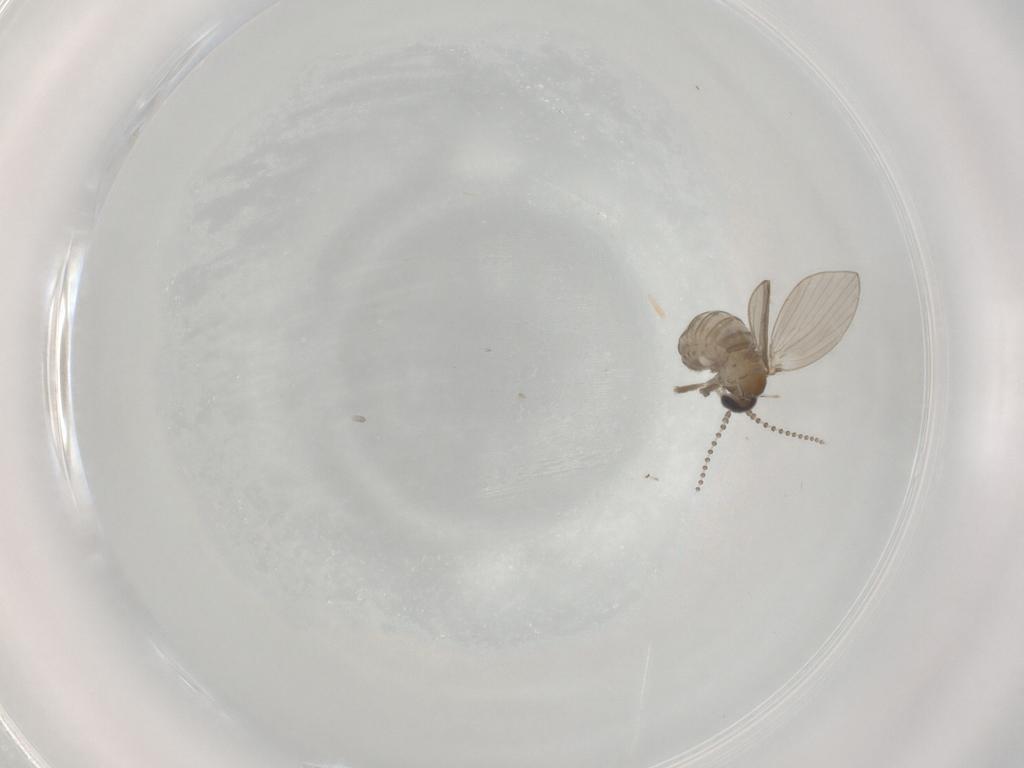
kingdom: Animalia
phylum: Arthropoda
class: Insecta
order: Diptera
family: Psychodidae
